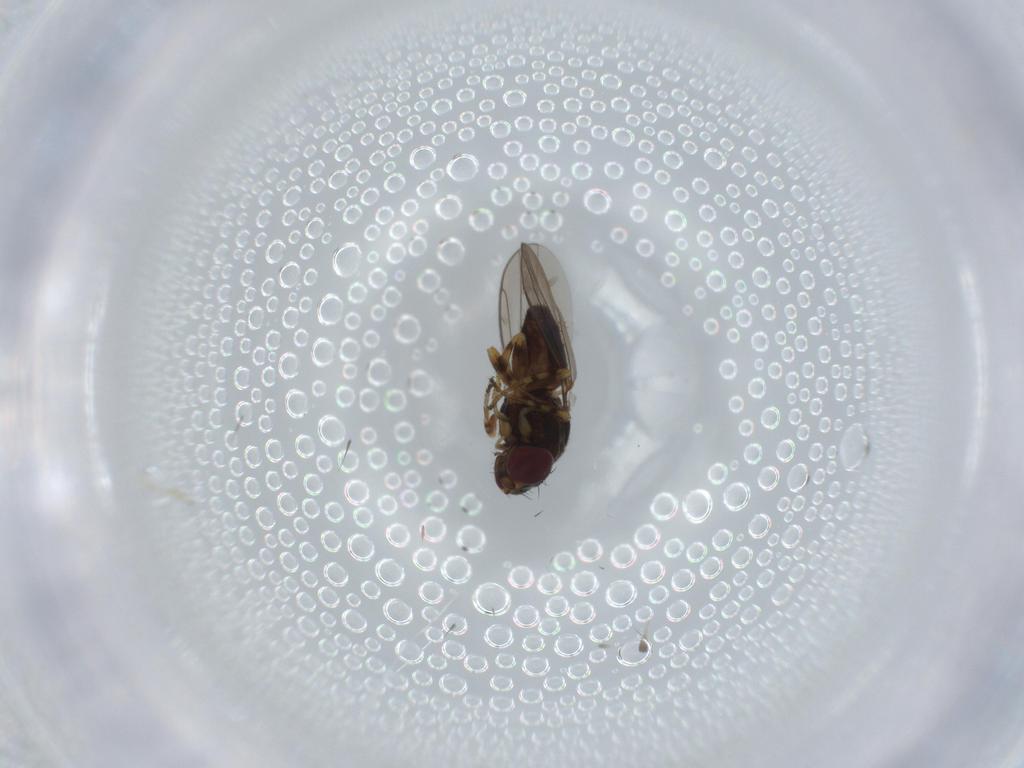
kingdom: Animalia
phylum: Arthropoda
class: Insecta
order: Diptera
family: Chloropidae
